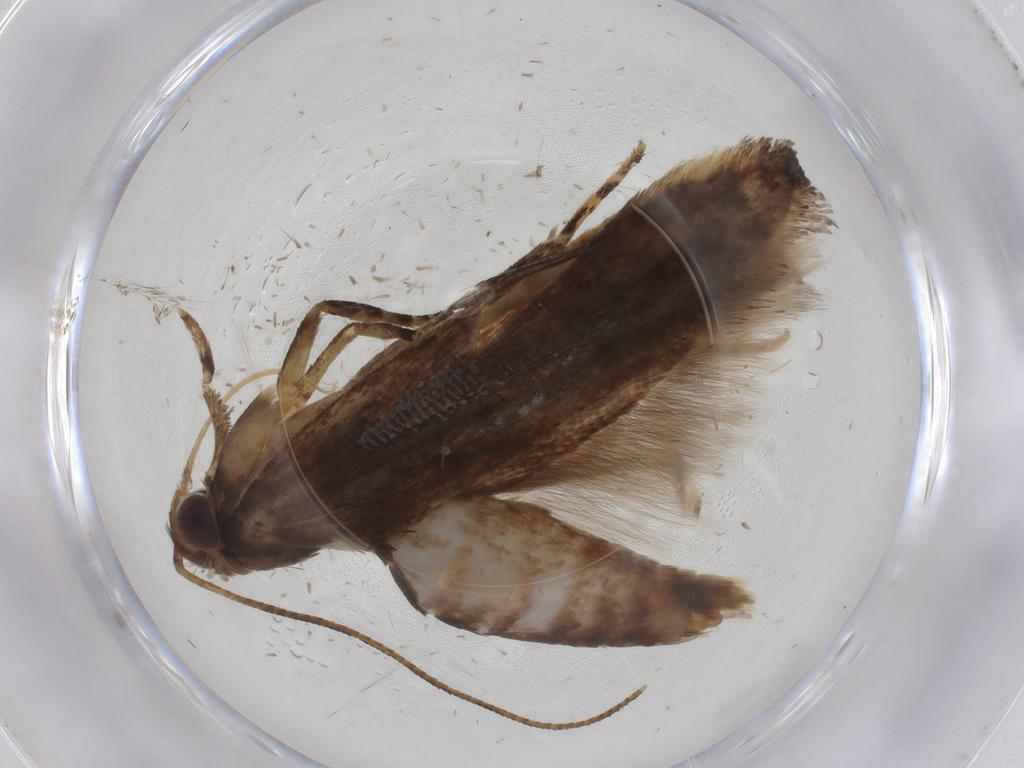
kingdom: Animalia
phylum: Arthropoda
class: Insecta
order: Lepidoptera
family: Gelechiidae
